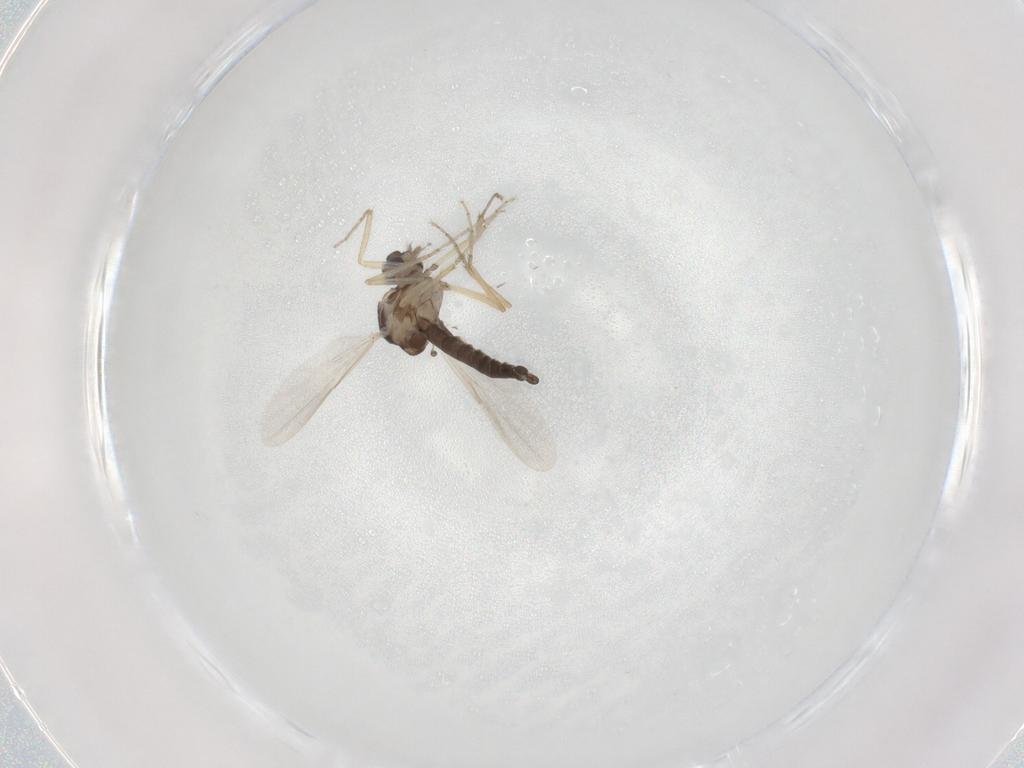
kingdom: Animalia
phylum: Arthropoda
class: Insecta
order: Diptera
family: Ceratopogonidae
